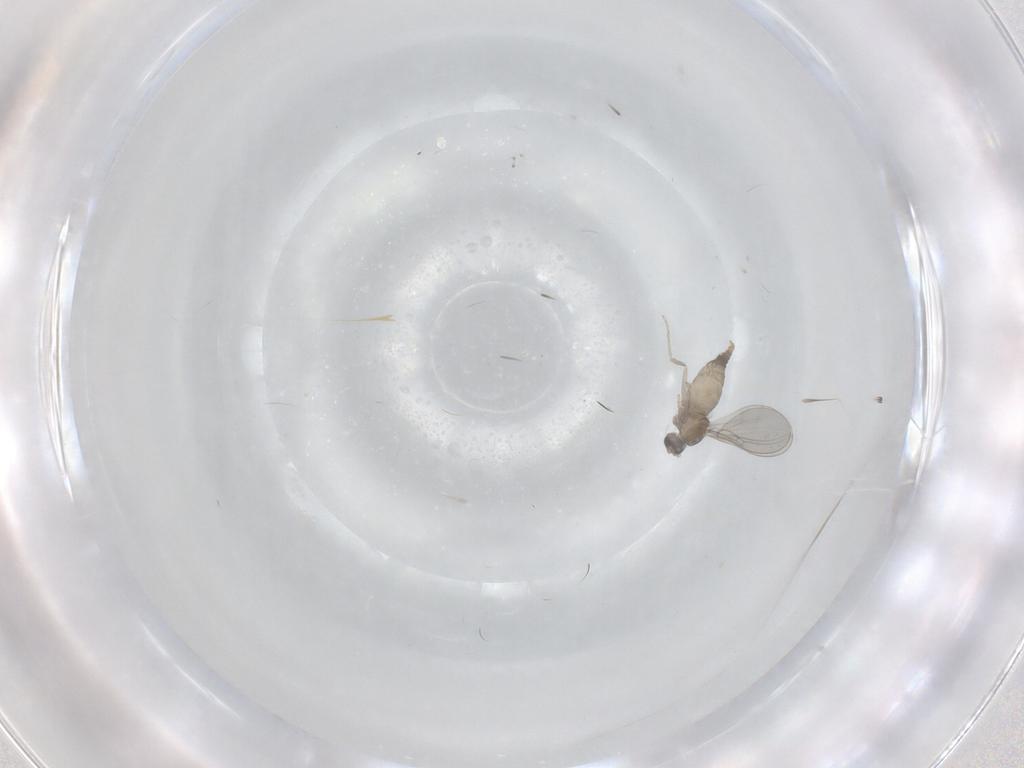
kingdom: Animalia
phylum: Arthropoda
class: Insecta
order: Diptera
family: Cecidomyiidae
